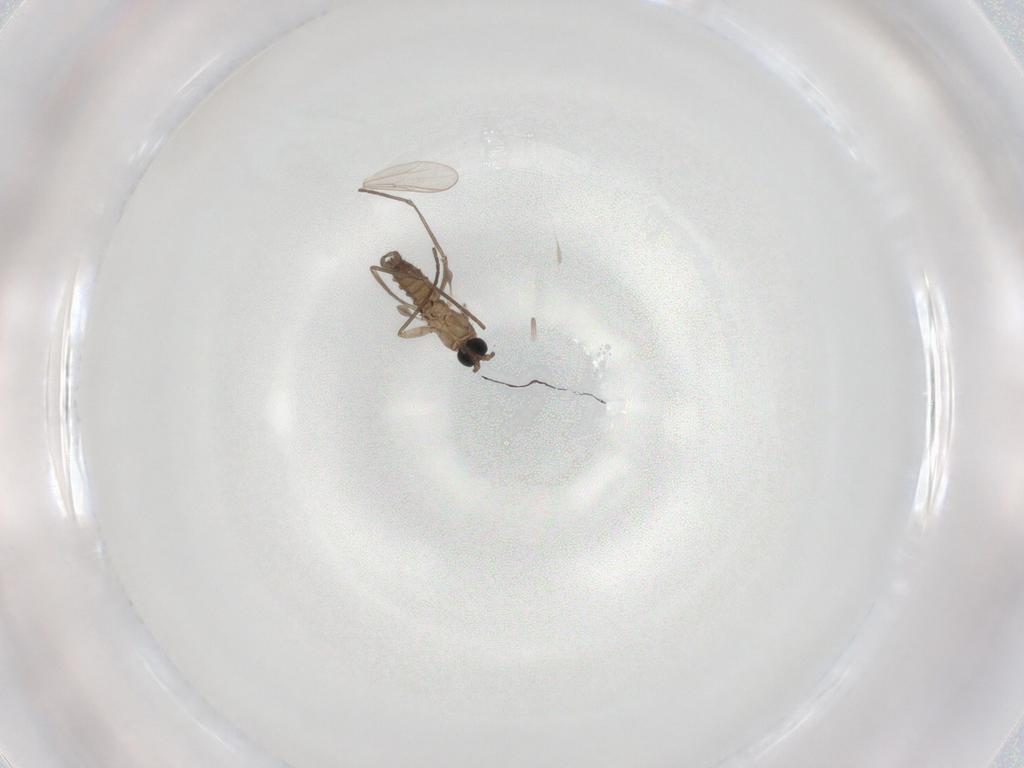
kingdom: Animalia
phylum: Arthropoda
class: Insecta
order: Diptera
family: Chironomidae
